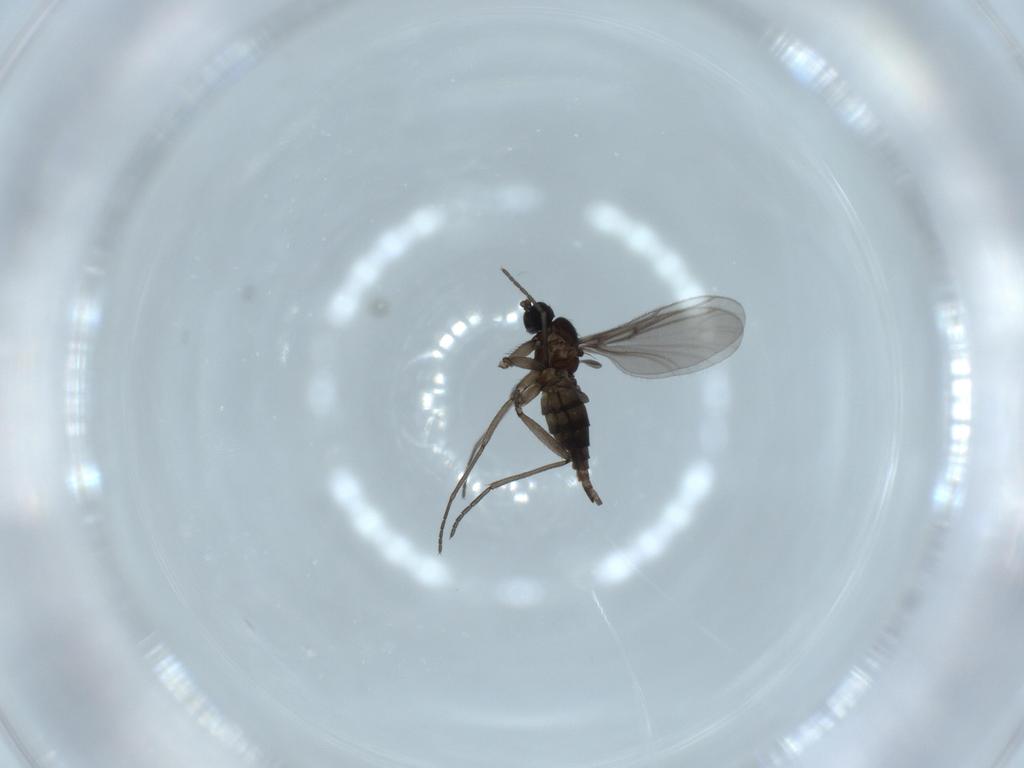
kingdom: Animalia
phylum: Arthropoda
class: Insecta
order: Diptera
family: Cecidomyiidae
